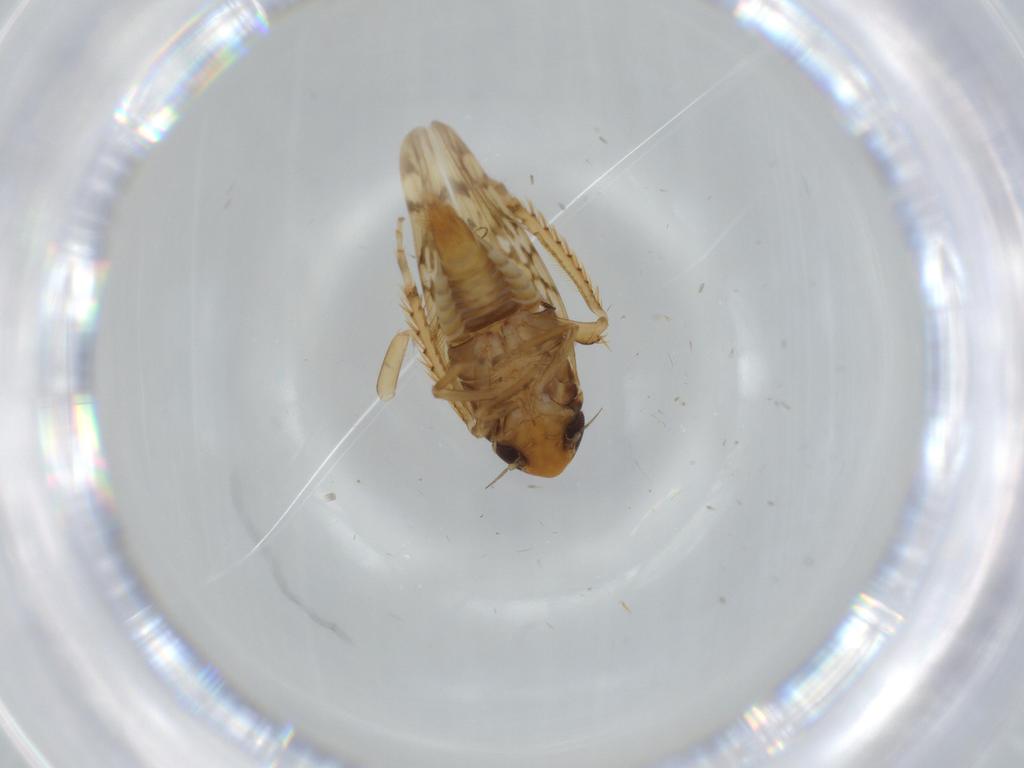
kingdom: Animalia
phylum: Arthropoda
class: Insecta
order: Hemiptera
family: Cicadellidae
